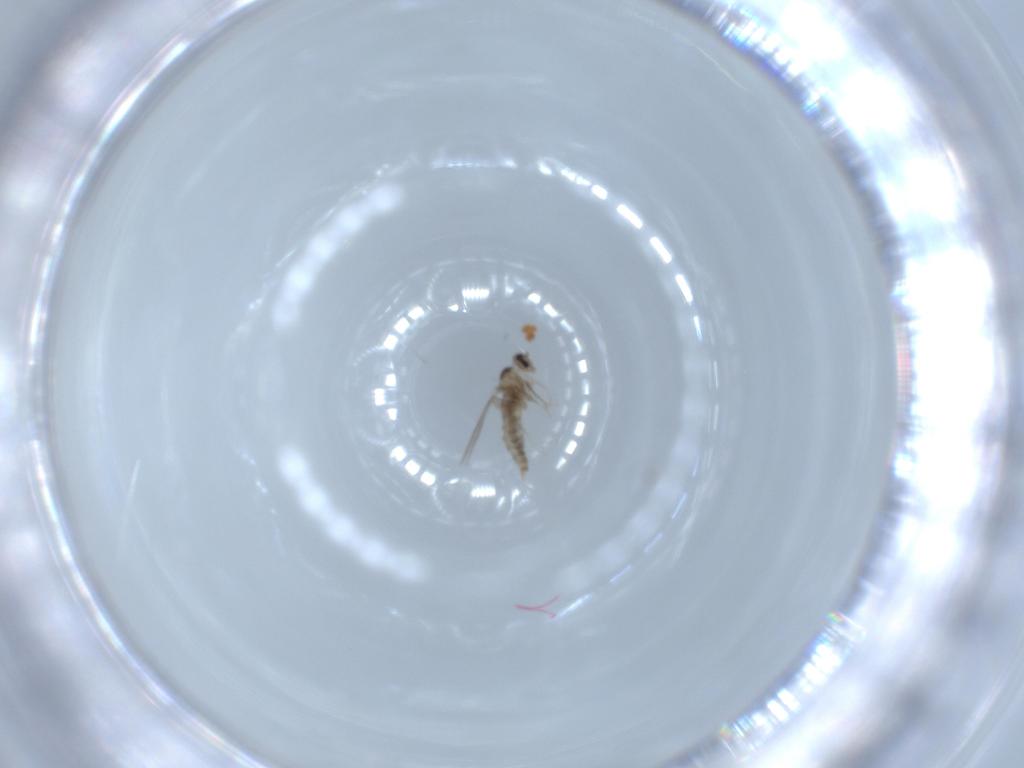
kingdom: Animalia
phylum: Arthropoda
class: Insecta
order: Diptera
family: Cecidomyiidae
